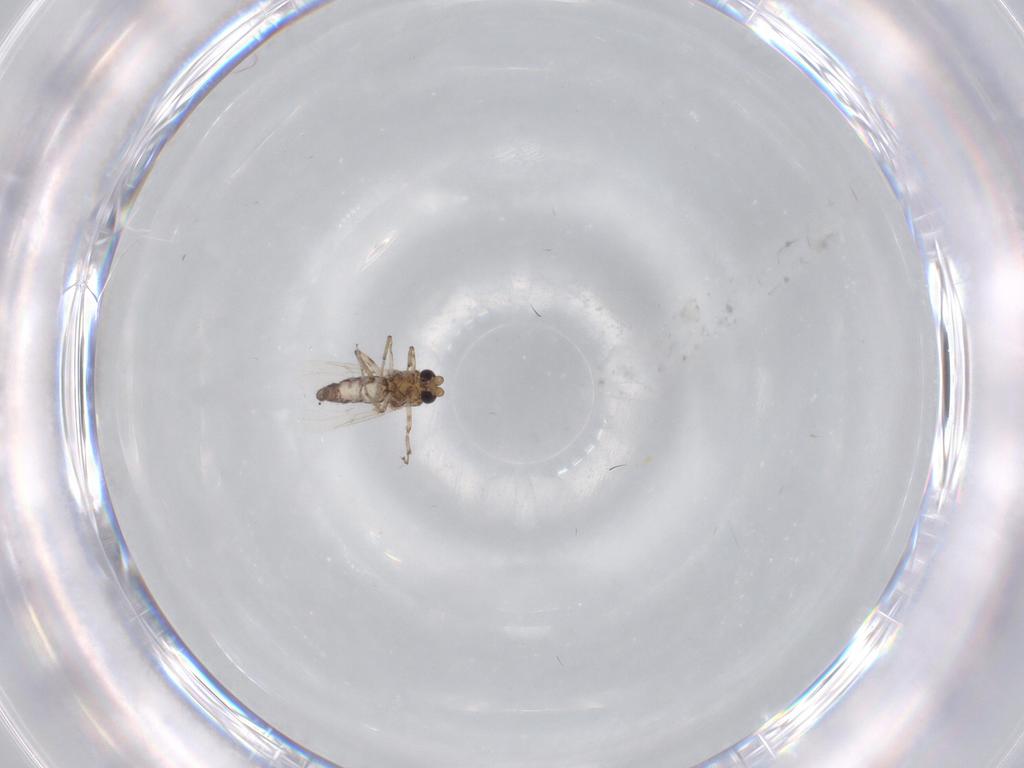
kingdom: Animalia
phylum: Arthropoda
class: Insecta
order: Diptera
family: Ceratopogonidae
